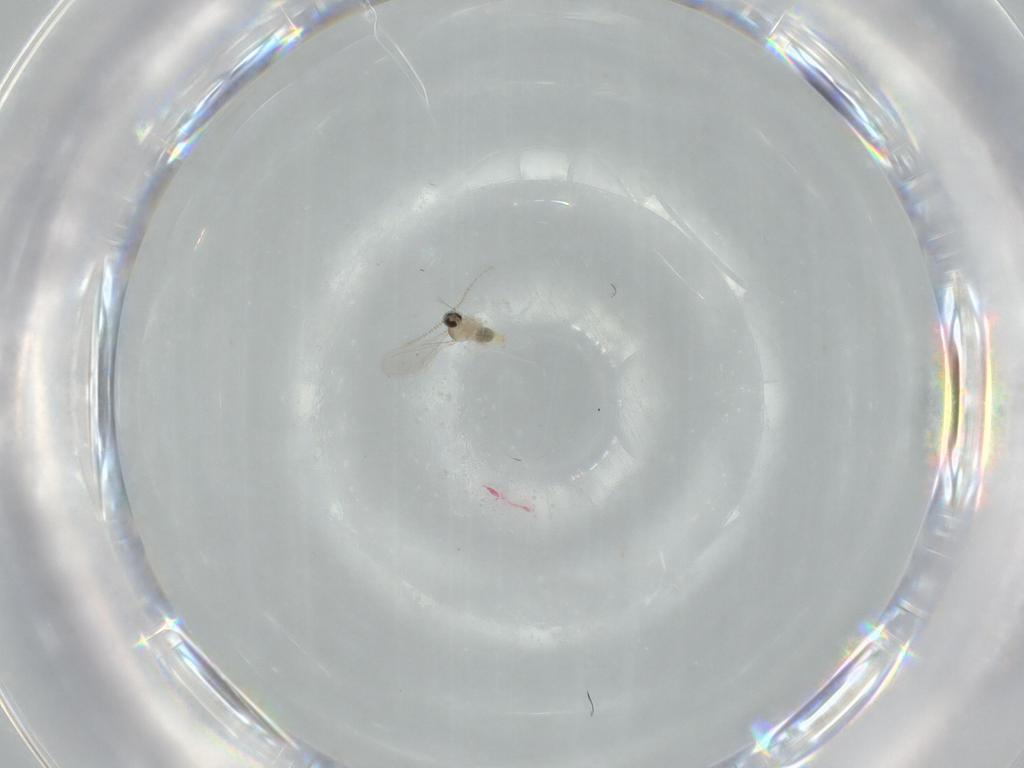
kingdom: Animalia
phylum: Arthropoda
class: Insecta
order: Diptera
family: Cecidomyiidae
